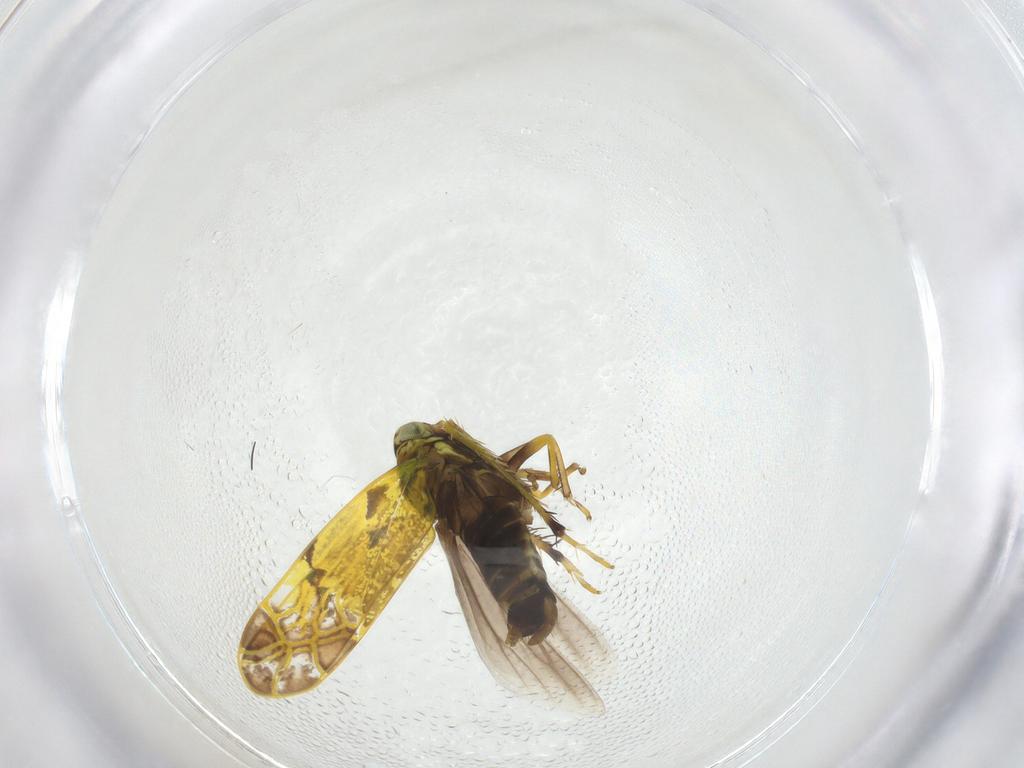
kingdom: Animalia
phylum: Arthropoda
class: Insecta
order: Hemiptera
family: Cicadellidae
